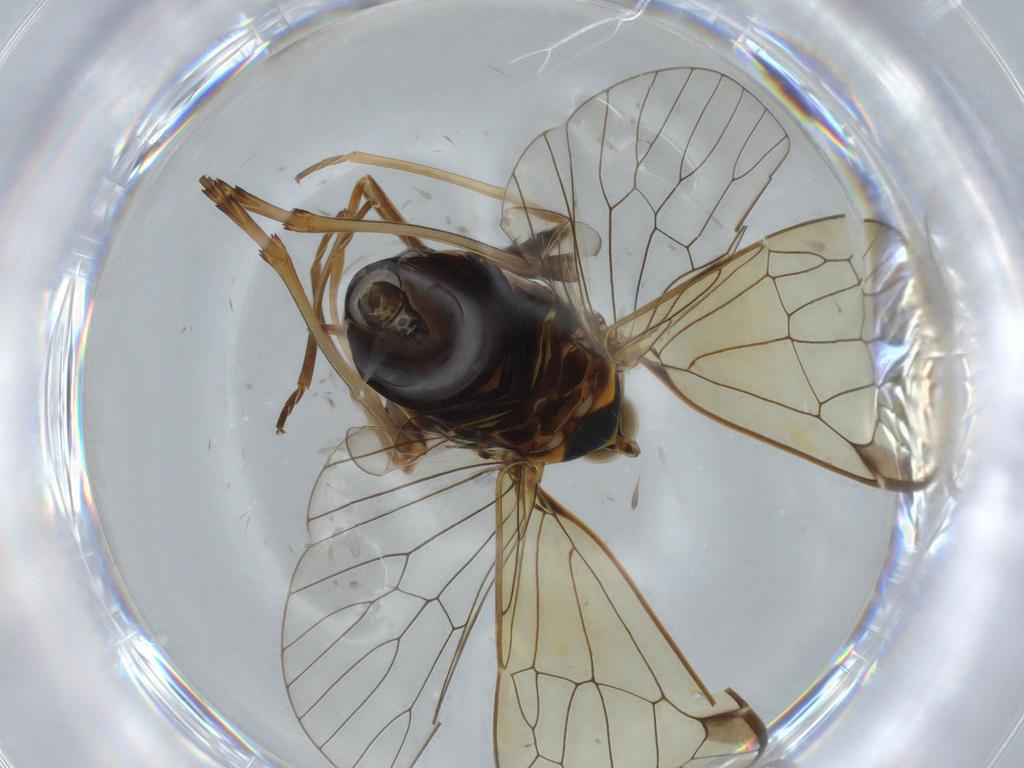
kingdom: Animalia
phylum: Arthropoda
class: Insecta
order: Hemiptera
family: Kinnaridae
